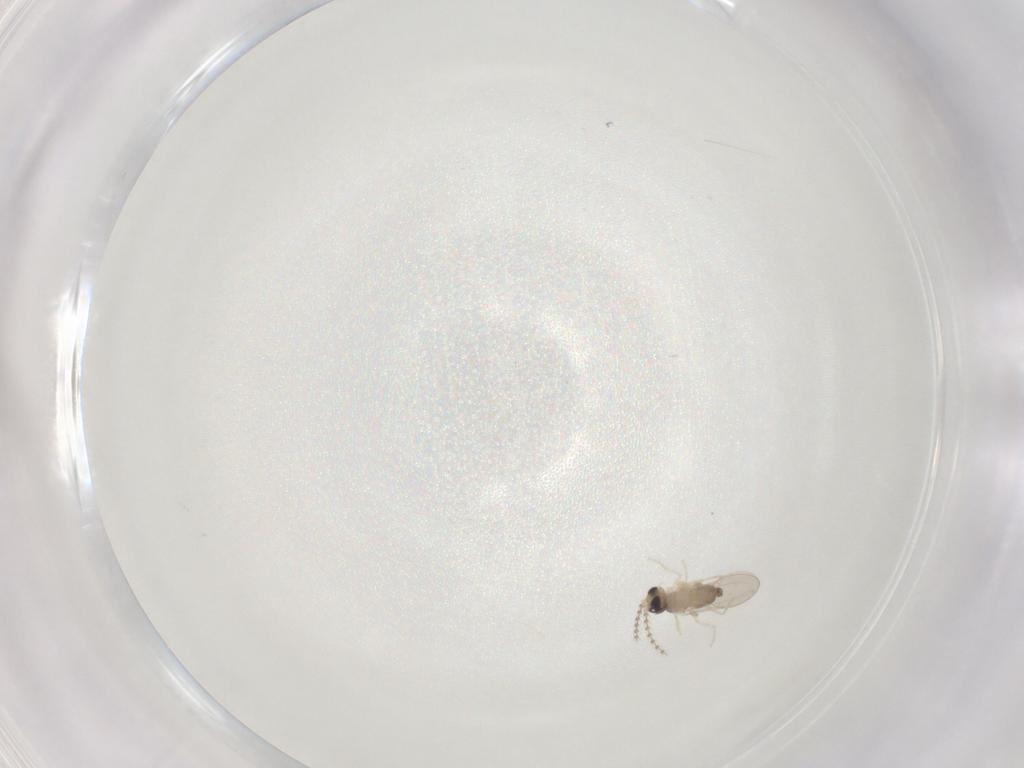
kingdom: Animalia
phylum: Arthropoda
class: Insecta
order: Diptera
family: Cecidomyiidae
